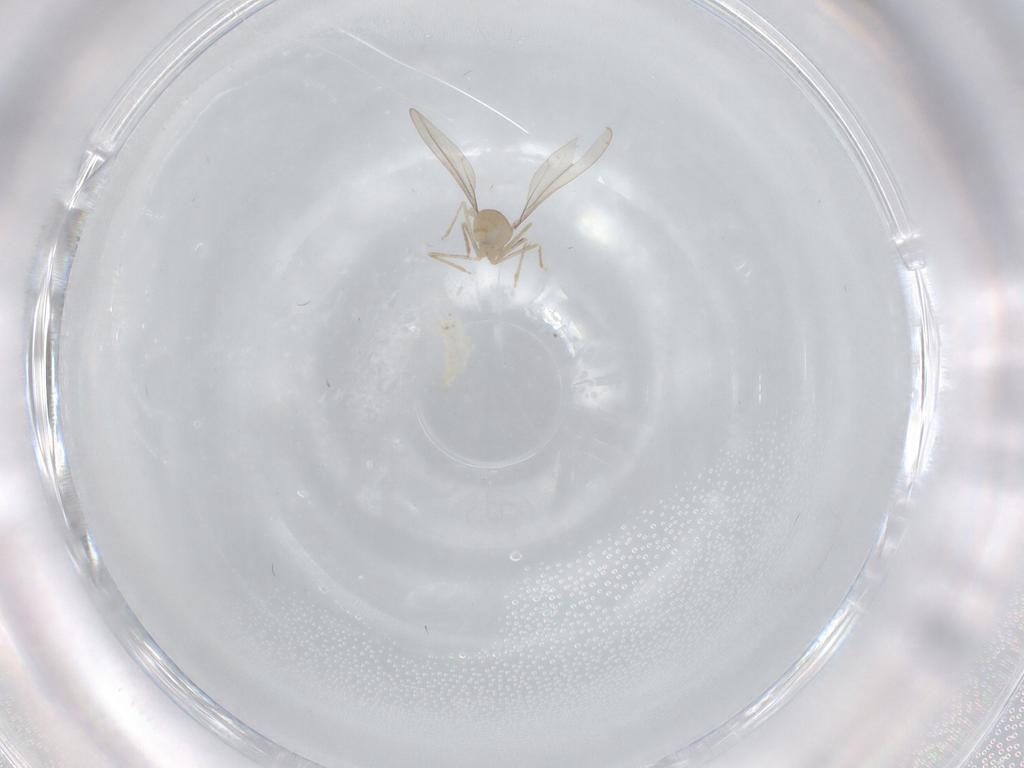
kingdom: Animalia
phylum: Arthropoda
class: Insecta
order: Diptera
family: Cecidomyiidae
